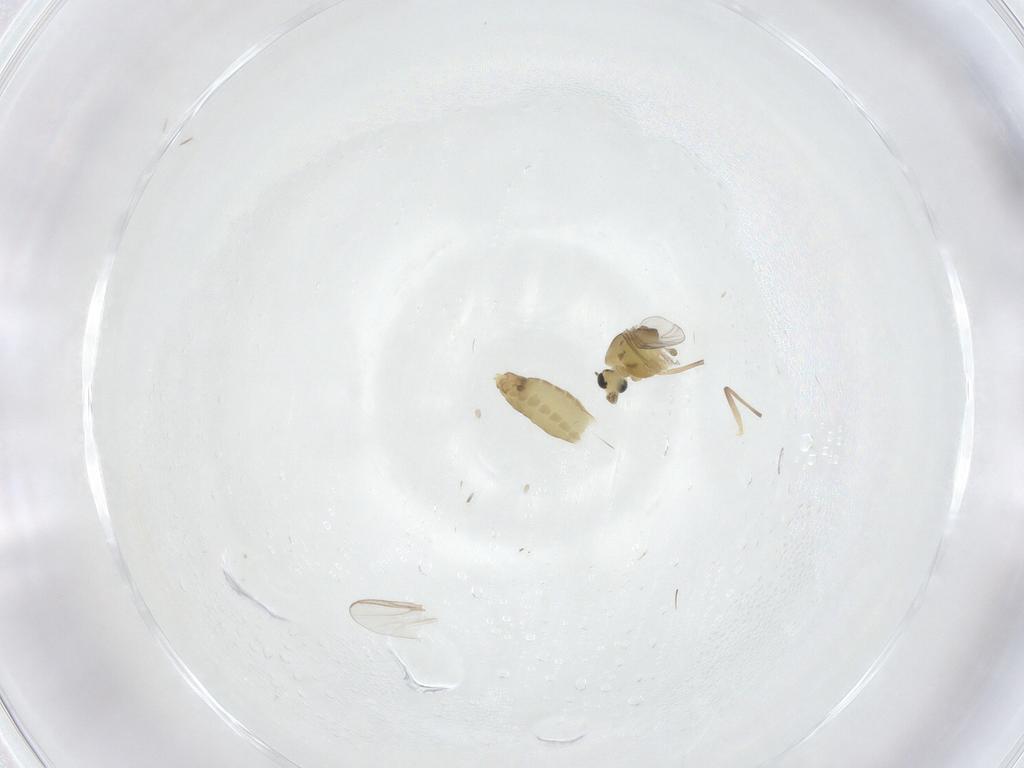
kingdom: Animalia
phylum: Arthropoda
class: Insecta
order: Diptera
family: Chironomidae
